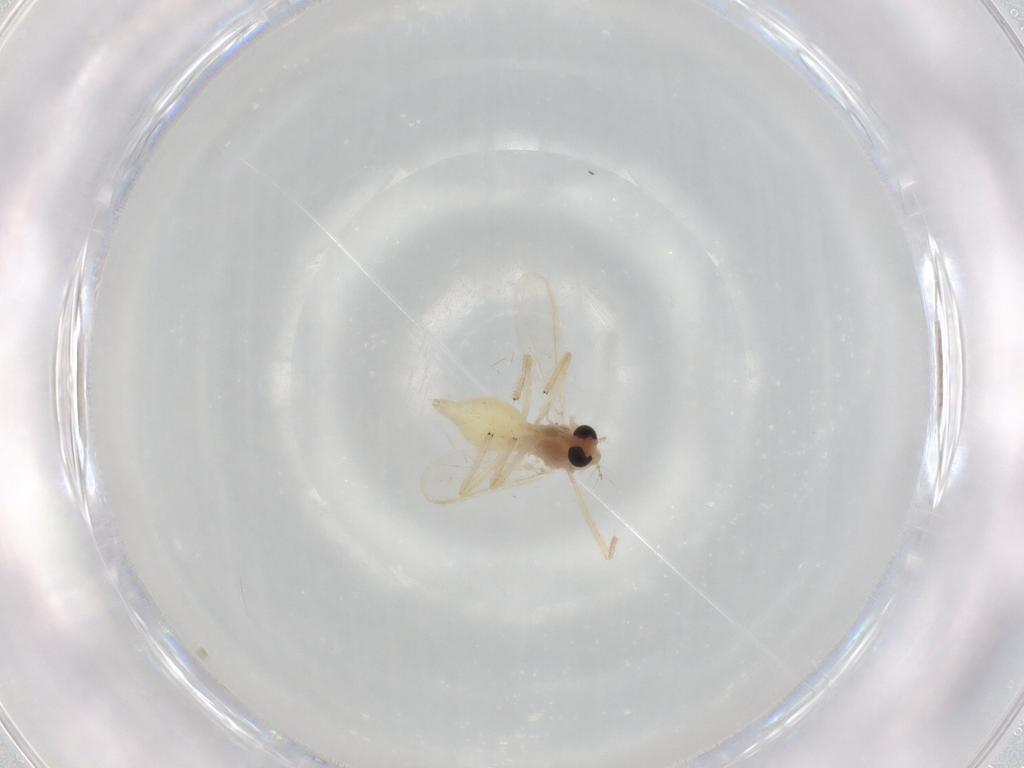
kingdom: Animalia
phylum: Arthropoda
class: Insecta
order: Diptera
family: Chironomidae
